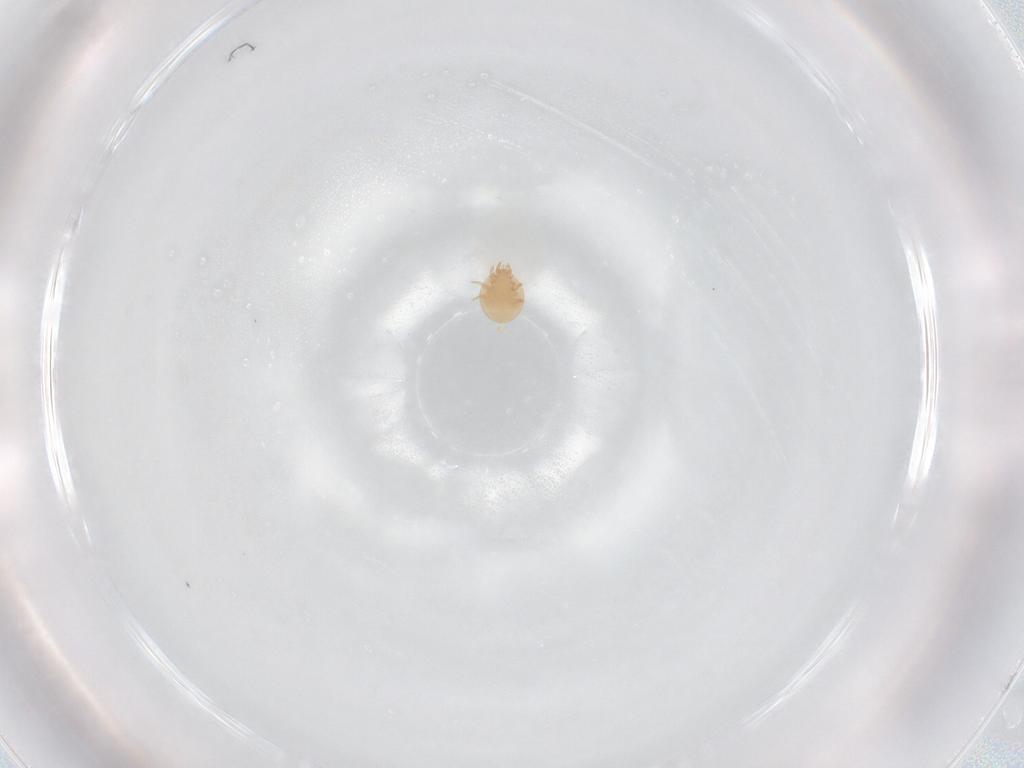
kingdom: Animalia
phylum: Arthropoda
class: Arachnida
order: Mesostigmata
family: Trematuridae
